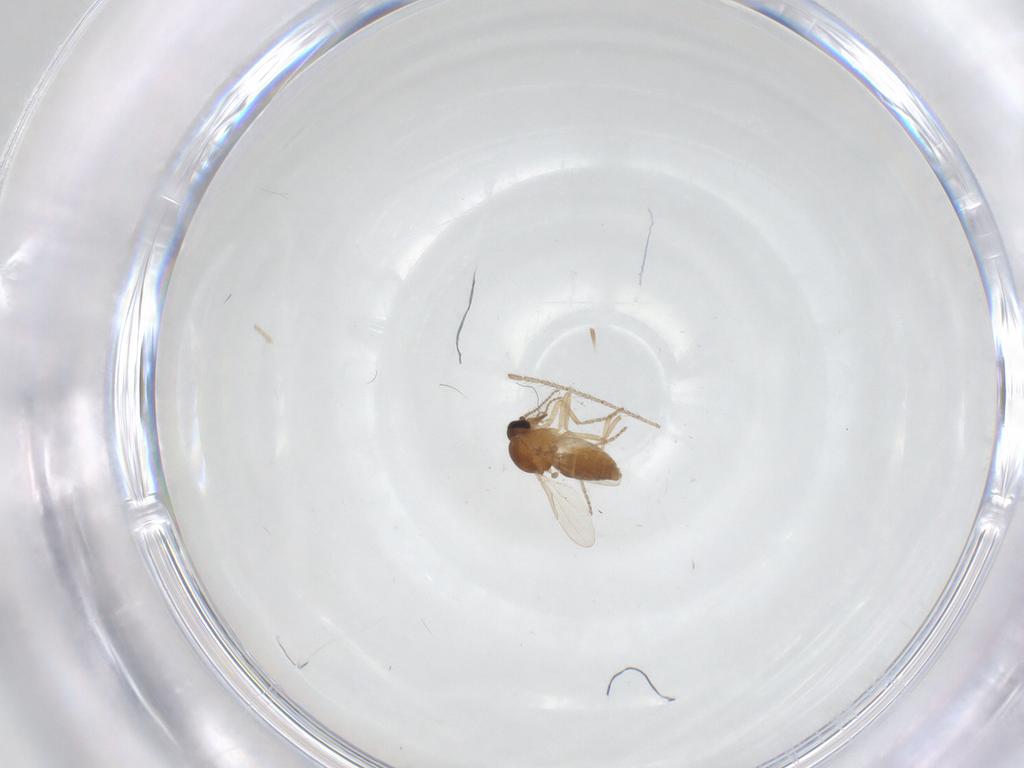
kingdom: Animalia
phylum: Arthropoda
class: Insecta
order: Diptera
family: Ceratopogonidae
